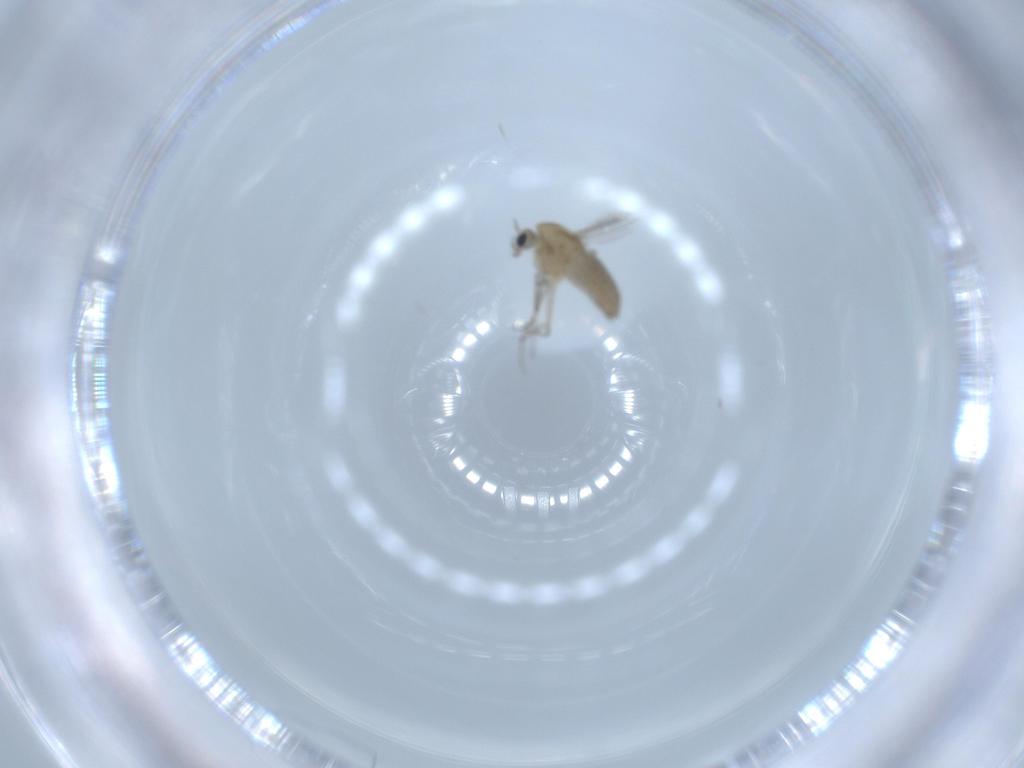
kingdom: Animalia
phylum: Arthropoda
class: Insecta
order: Diptera
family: Chironomidae
